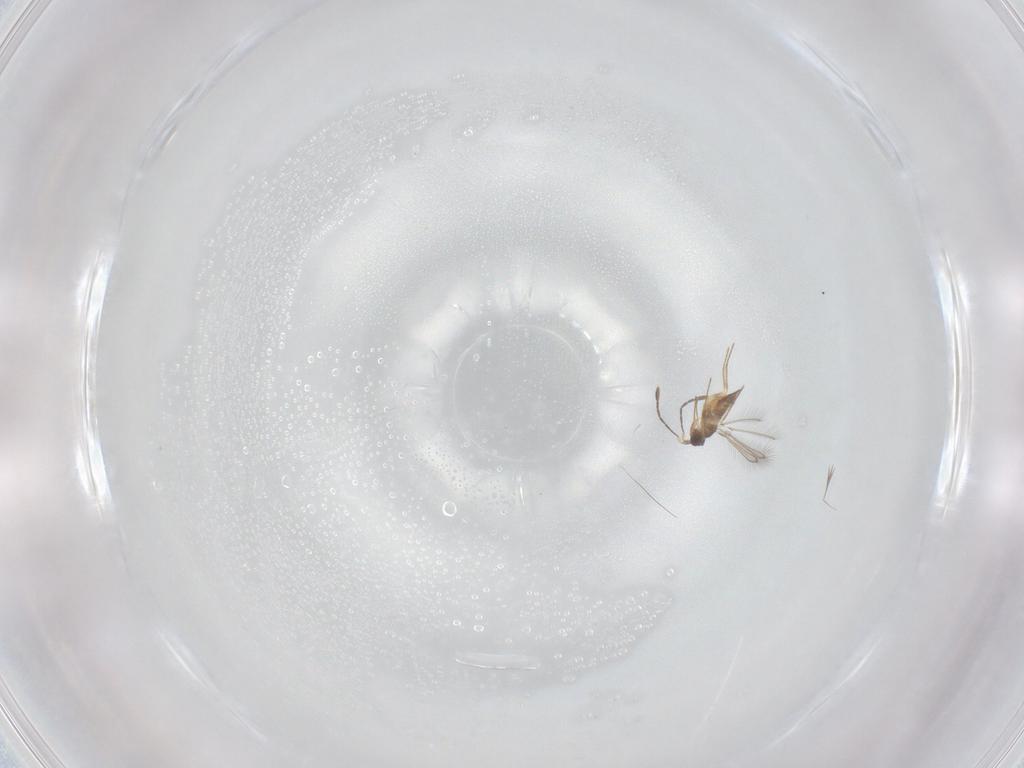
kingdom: Animalia
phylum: Arthropoda
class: Insecta
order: Hymenoptera
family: Mymaridae
